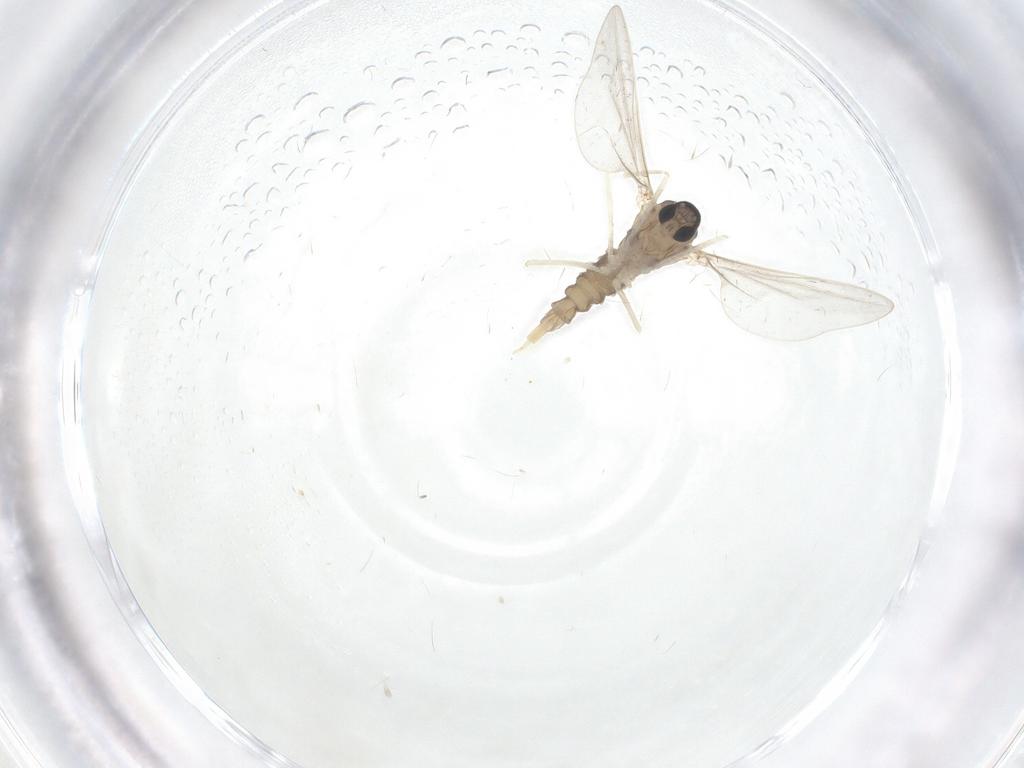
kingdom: Animalia
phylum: Arthropoda
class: Insecta
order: Diptera
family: Cecidomyiidae
